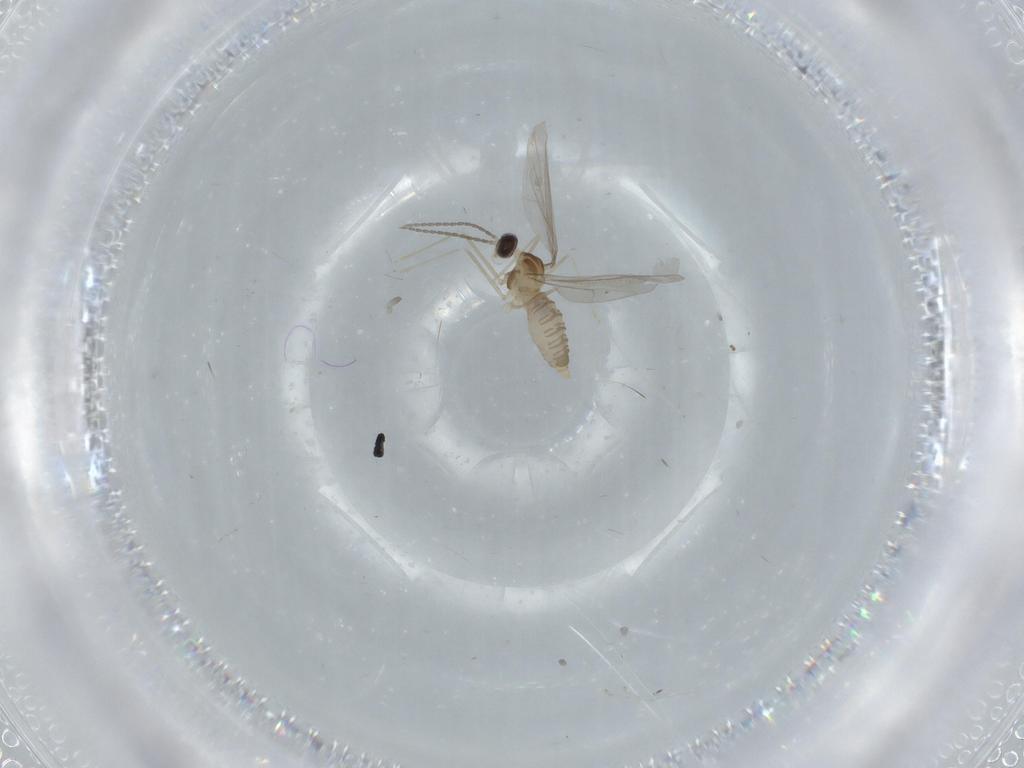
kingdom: Animalia
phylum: Arthropoda
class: Insecta
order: Diptera
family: Cecidomyiidae
